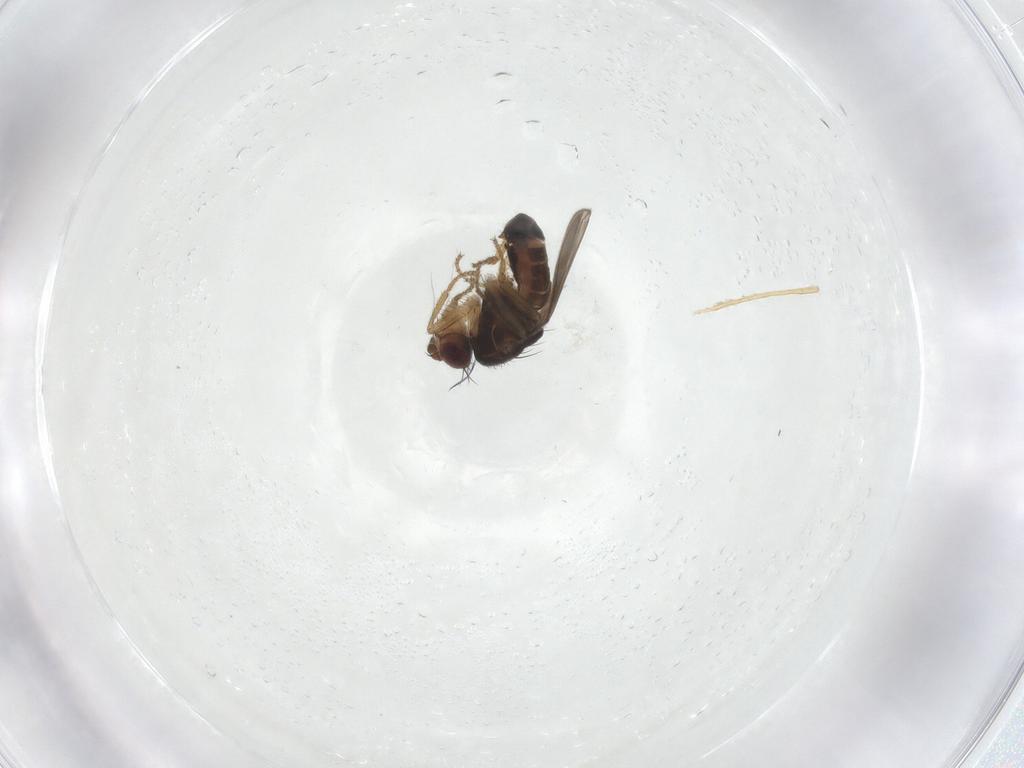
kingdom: Animalia
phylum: Arthropoda
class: Insecta
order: Diptera
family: Sphaeroceridae
